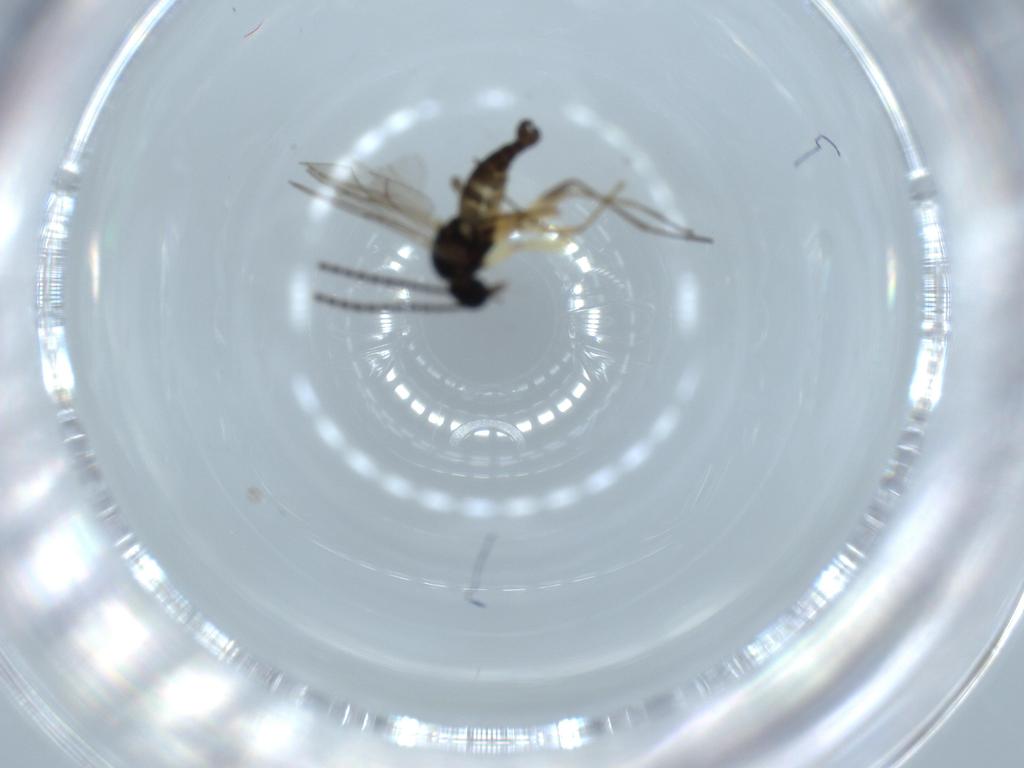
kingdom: Animalia
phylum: Arthropoda
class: Insecta
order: Diptera
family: Sciaridae
